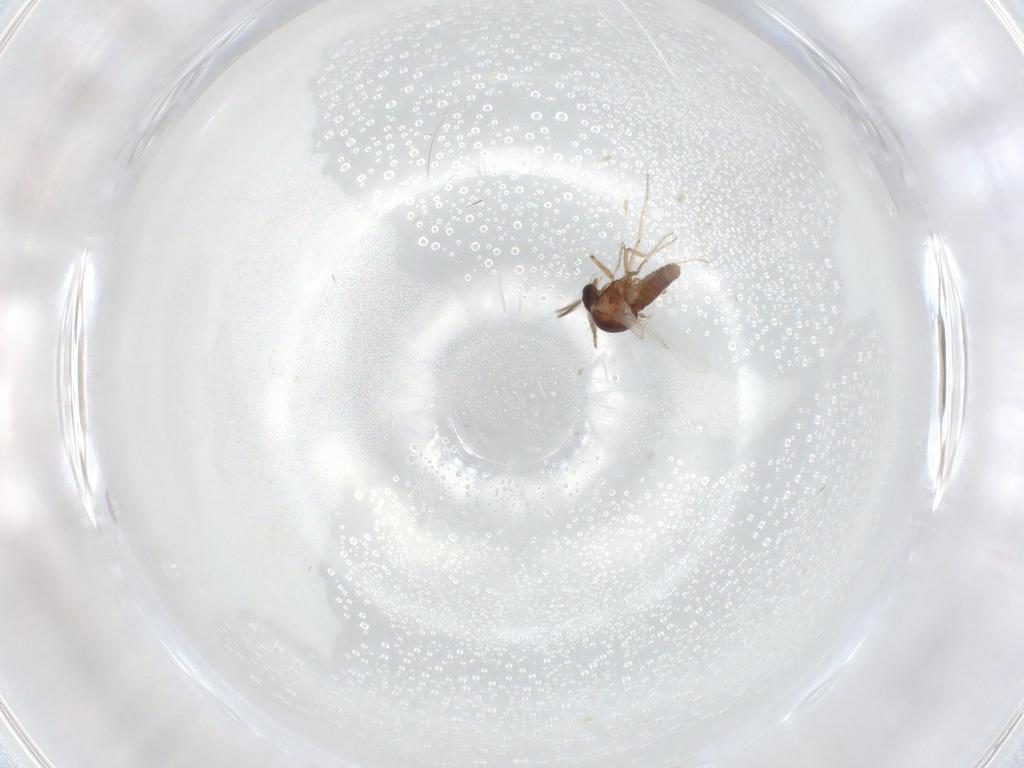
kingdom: Animalia
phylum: Arthropoda
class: Insecta
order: Diptera
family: Ceratopogonidae
